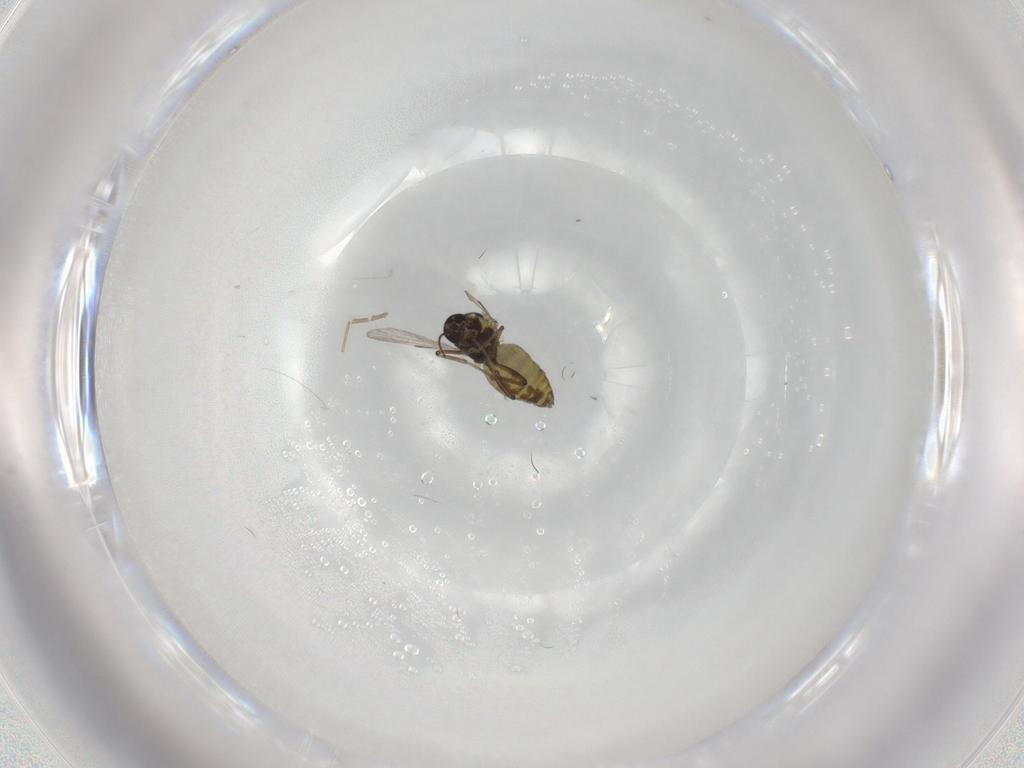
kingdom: Animalia
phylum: Arthropoda
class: Insecta
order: Diptera
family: Ceratopogonidae
